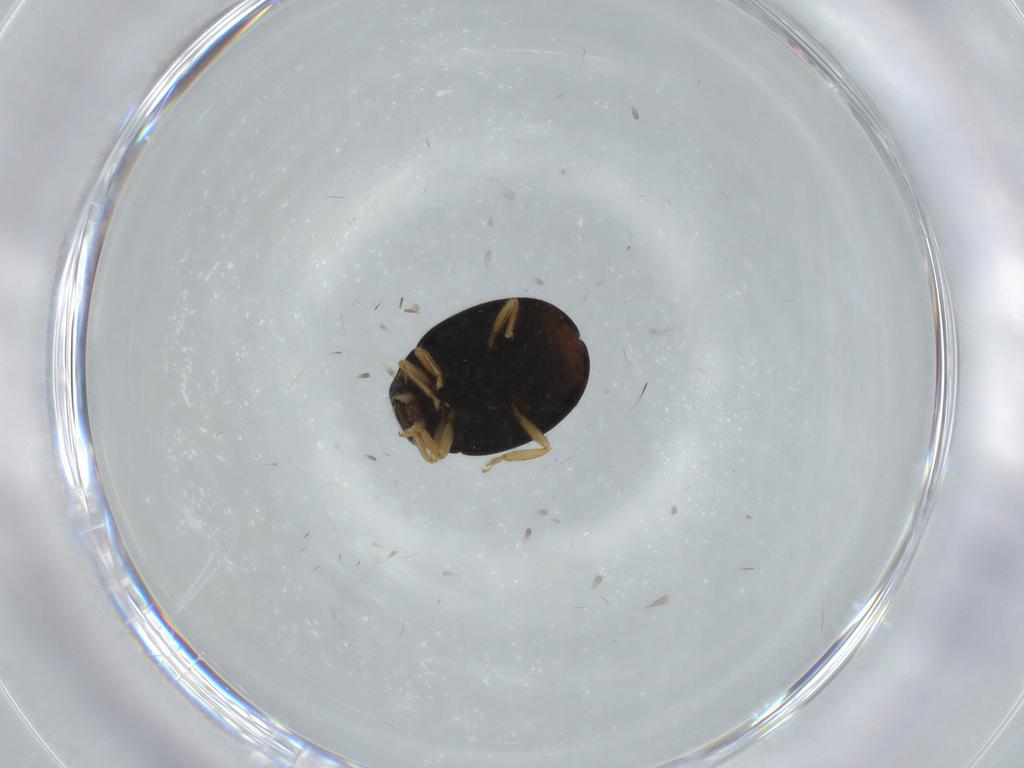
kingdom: Animalia
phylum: Arthropoda
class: Insecta
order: Coleoptera
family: Coccinellidae
